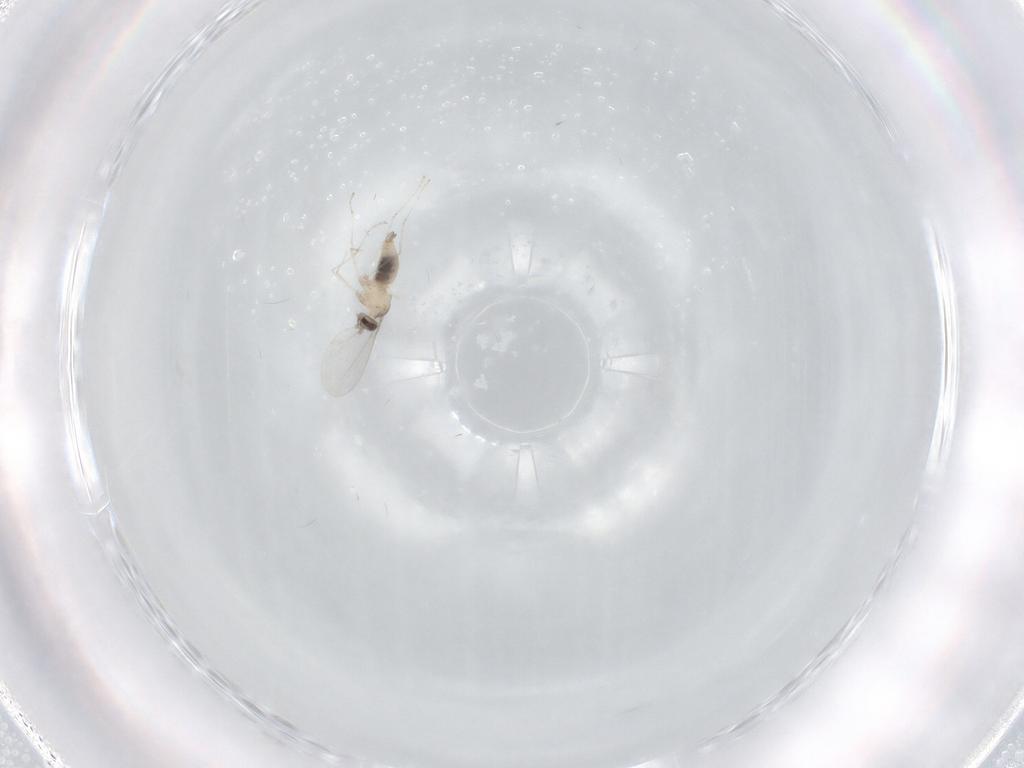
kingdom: Animalia
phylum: Arthropoda
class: Insecta
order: Diptera
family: Cecidomyiidae
